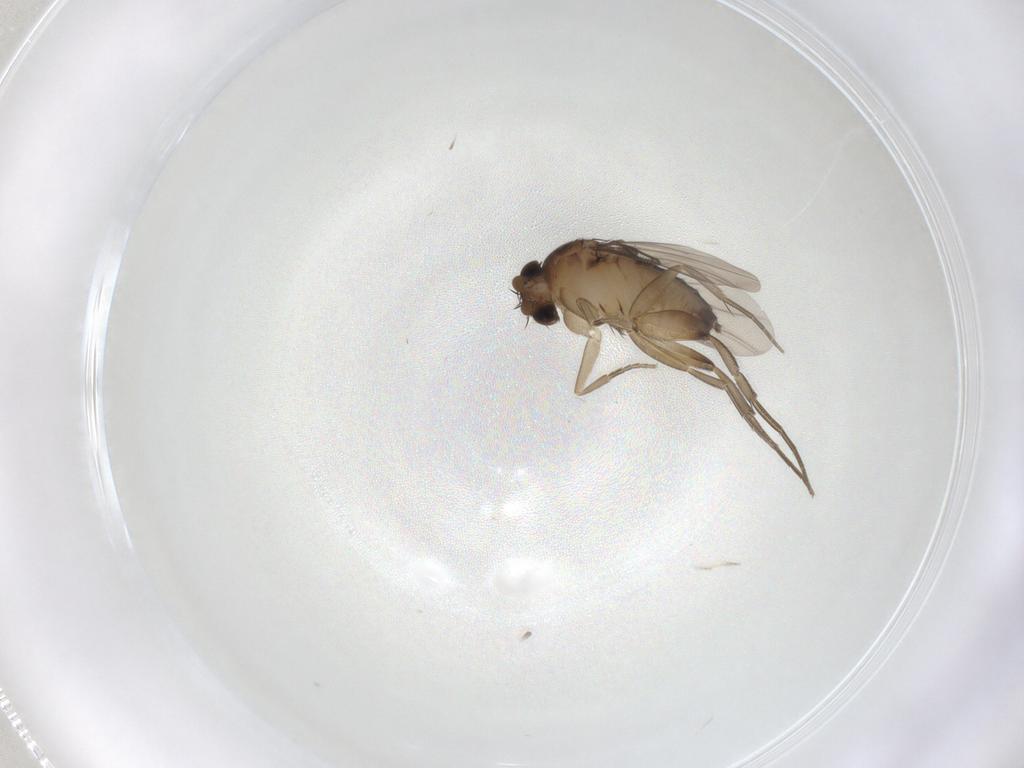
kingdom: Animalia
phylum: Arthropoda
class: Insecta
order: Diptera
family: Phoridae
